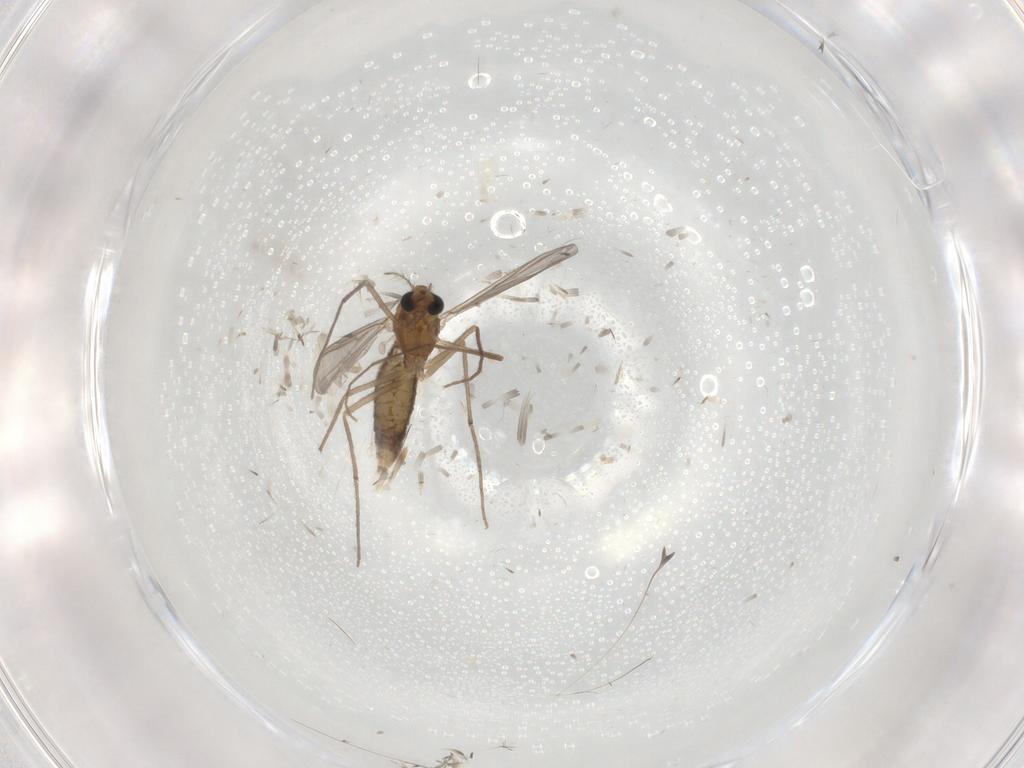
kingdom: Animalia
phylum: Arthropoda
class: Insecta
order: Diptera
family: Chironomidae
